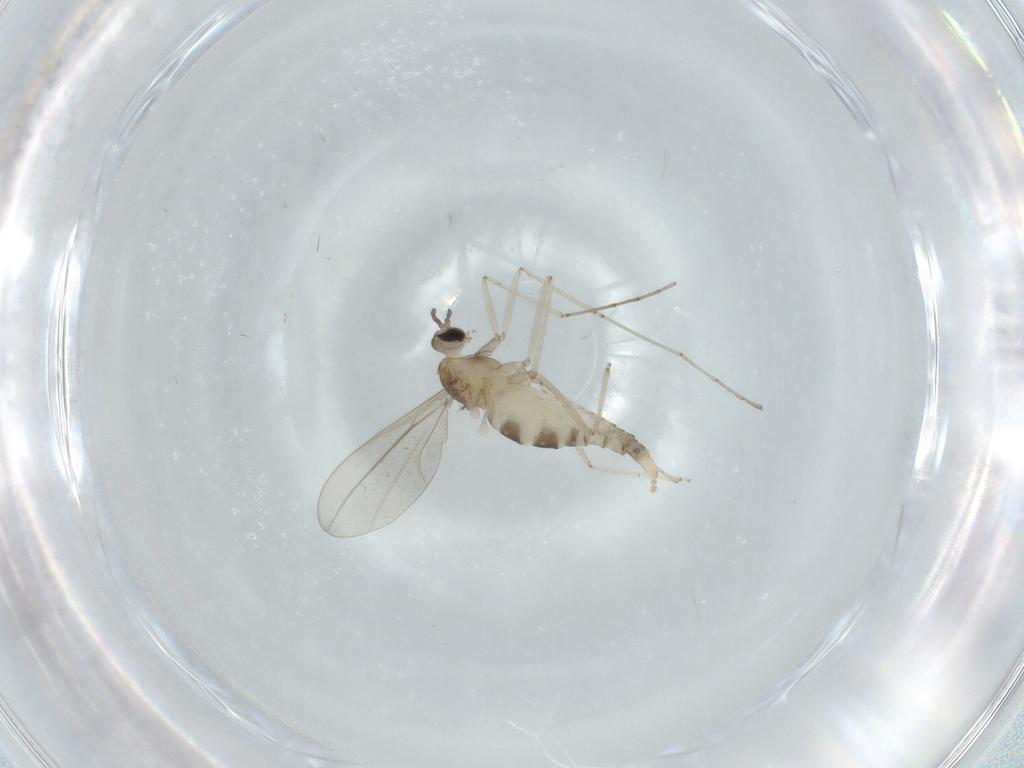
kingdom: Animalia
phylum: Arthropoda
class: Insecta
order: Diptera
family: Cecidomyiidae
